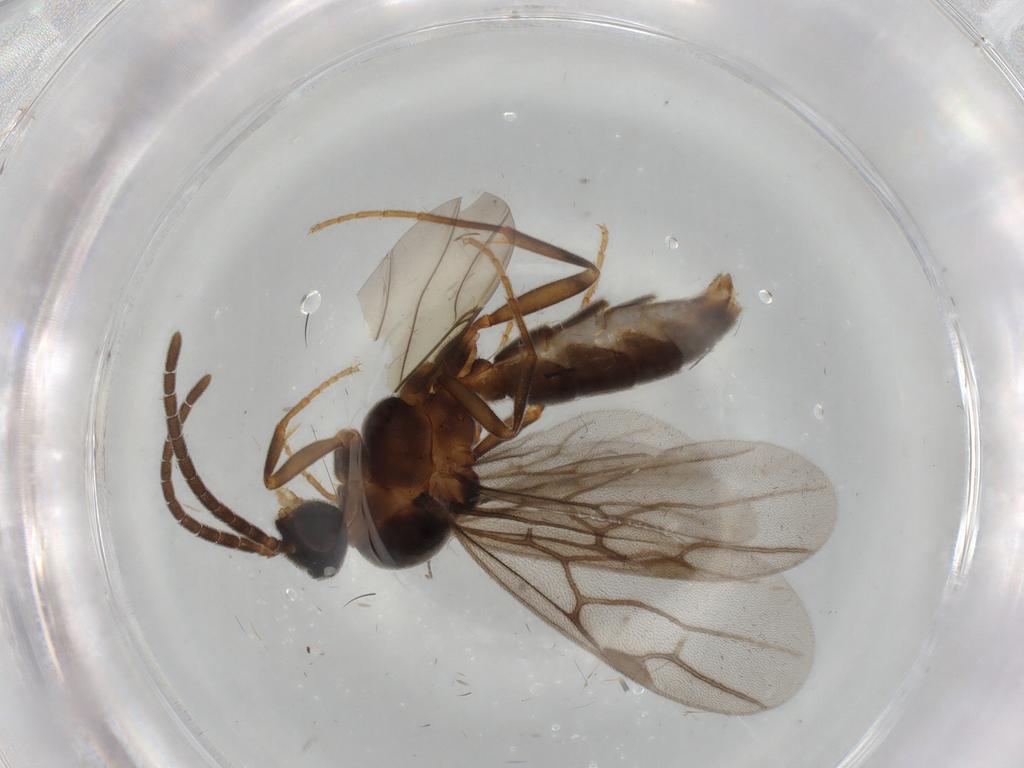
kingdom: Animalia
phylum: Arthropoda
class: Insecta
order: Hymenoptera
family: Formicidae
